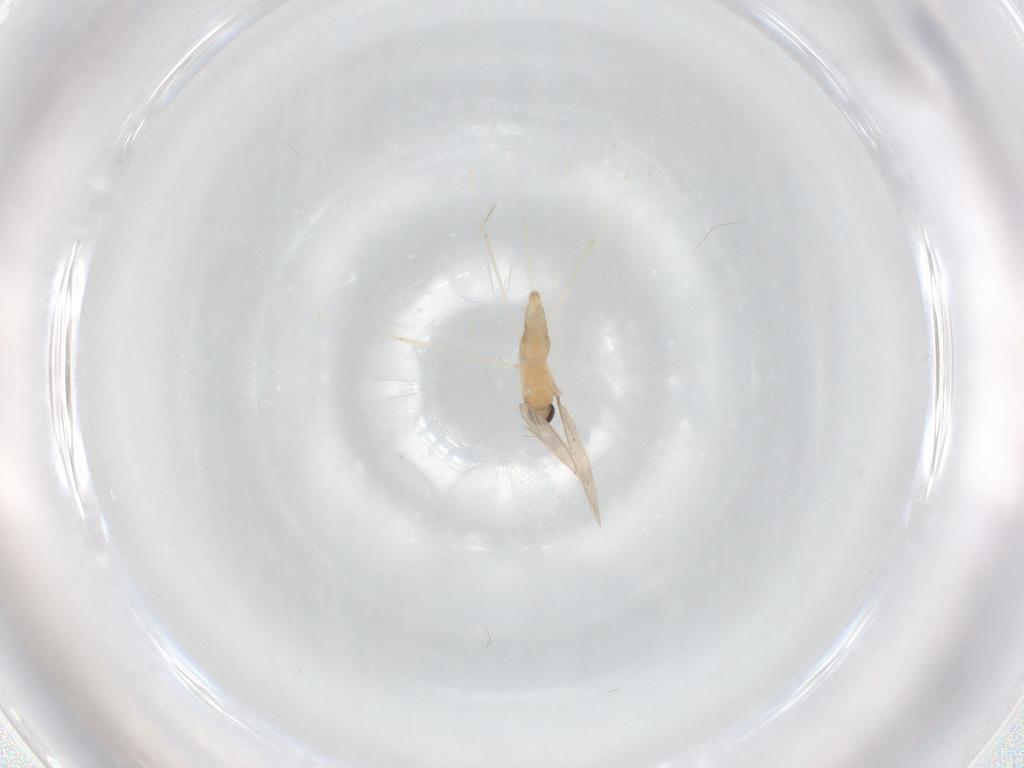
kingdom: Animalia
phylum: Arthropoda
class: Insecta
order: Diptera
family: Cecidomyiidae
